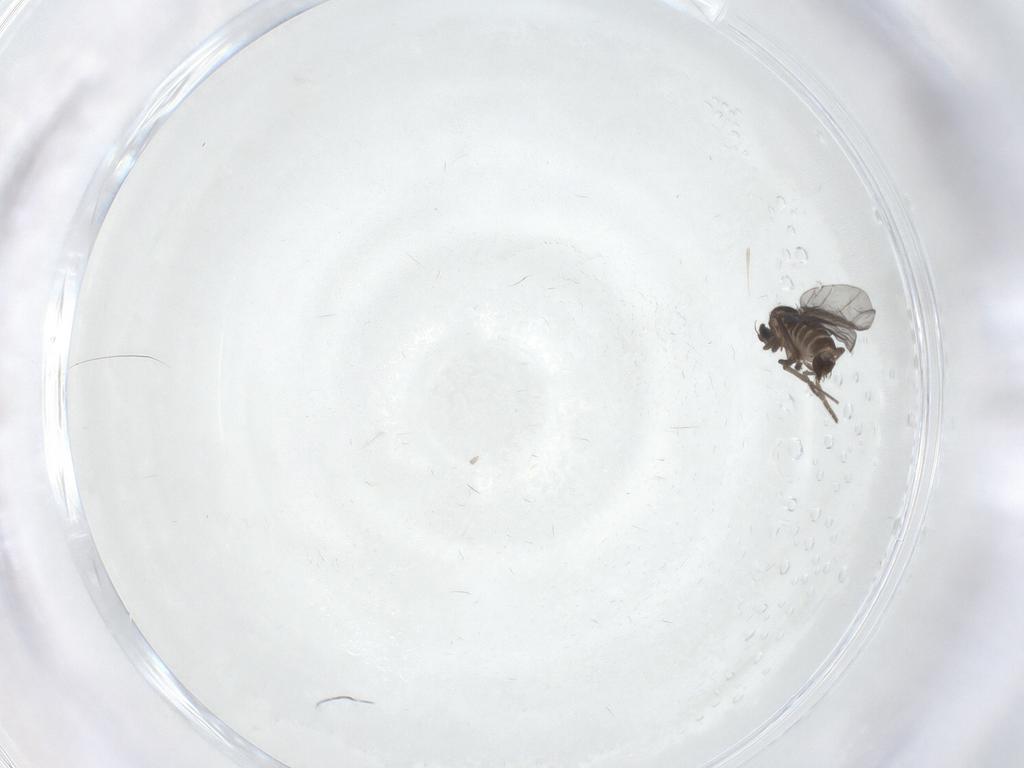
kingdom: Animalia
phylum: Arthropoda
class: Insecta
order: Diptera
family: Phoridae
